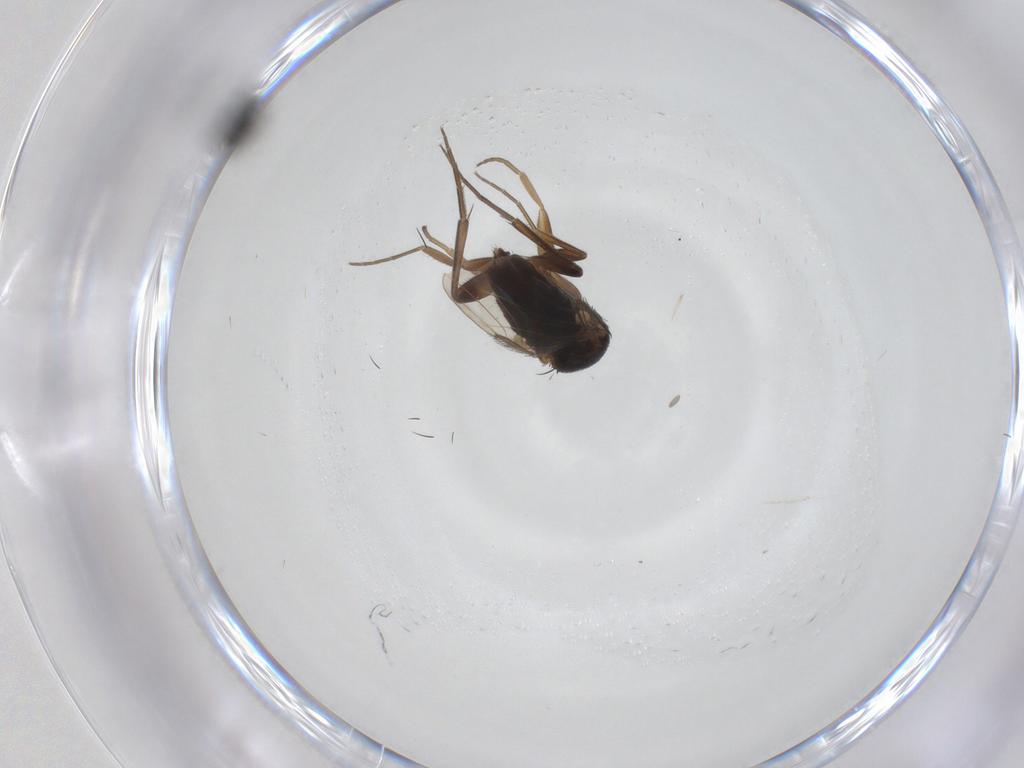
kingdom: Animalia
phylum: Arthropoda
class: Insecta
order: Diptera
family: Phoridae
